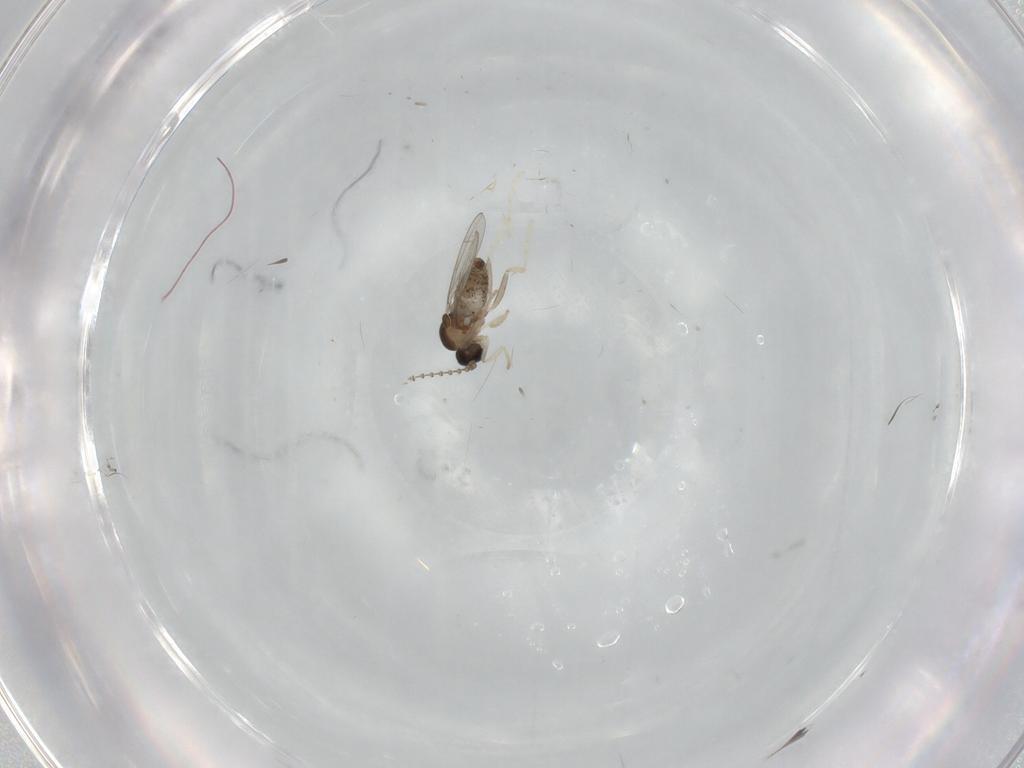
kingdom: Animalia
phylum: Arthropoda
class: Insecta
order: Diptera
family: Cecidomyiidae
